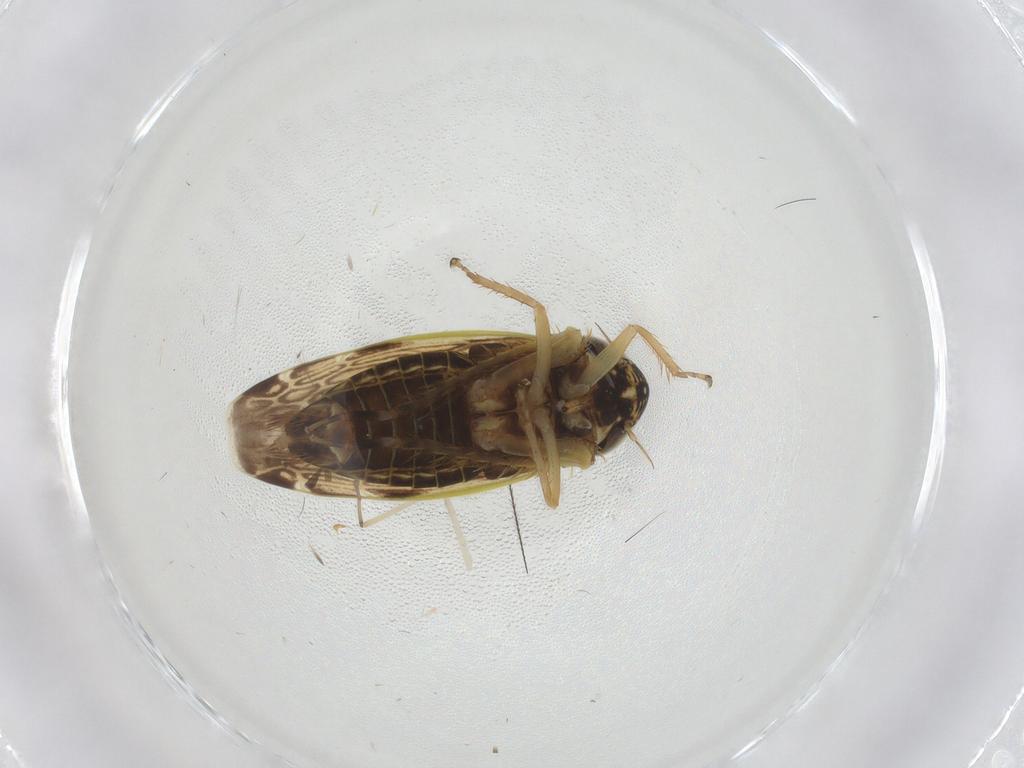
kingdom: Animalia
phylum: Arthropoda
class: Insecta
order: Hemiptera
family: Cicadellidae
